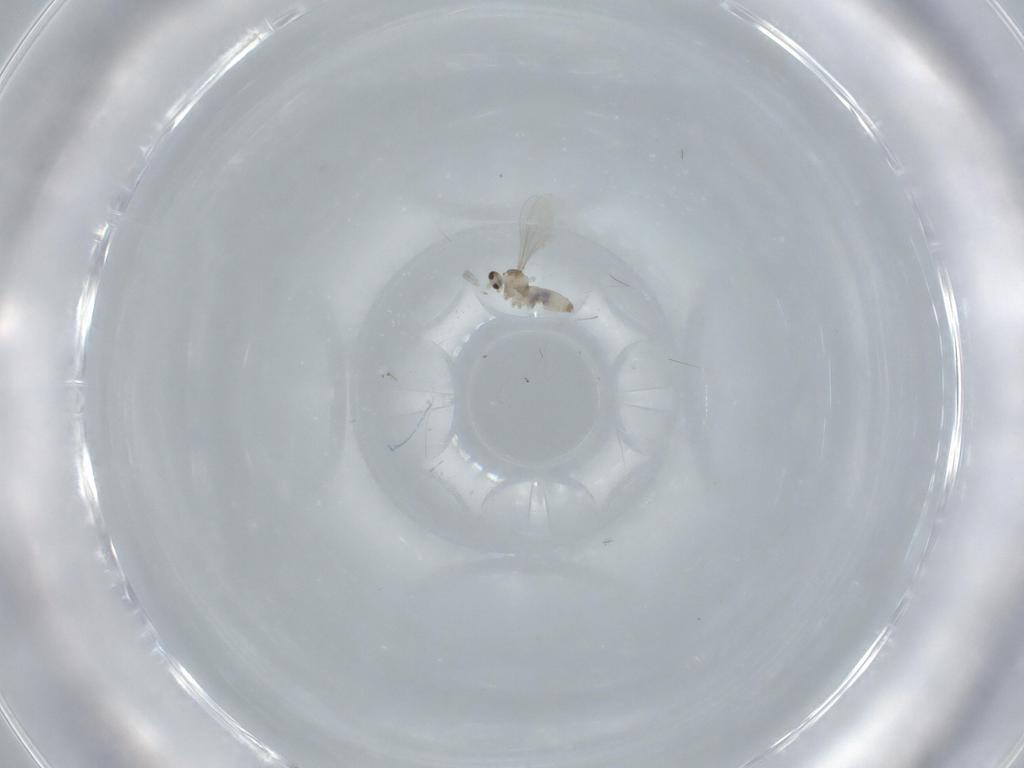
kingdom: Animalia
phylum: Arthropoda
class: Insecta
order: Diptera
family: Cecidomyiidae
